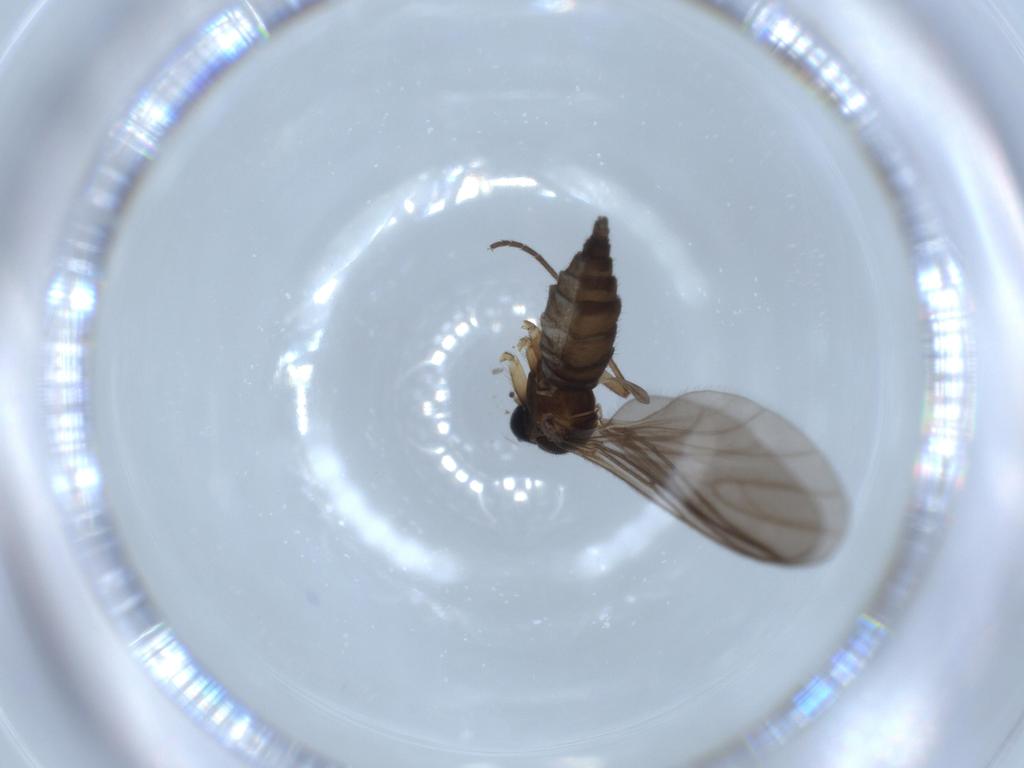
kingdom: Animalia
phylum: Arthropoda
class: Insecta
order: Diptera
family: Sciaridae
